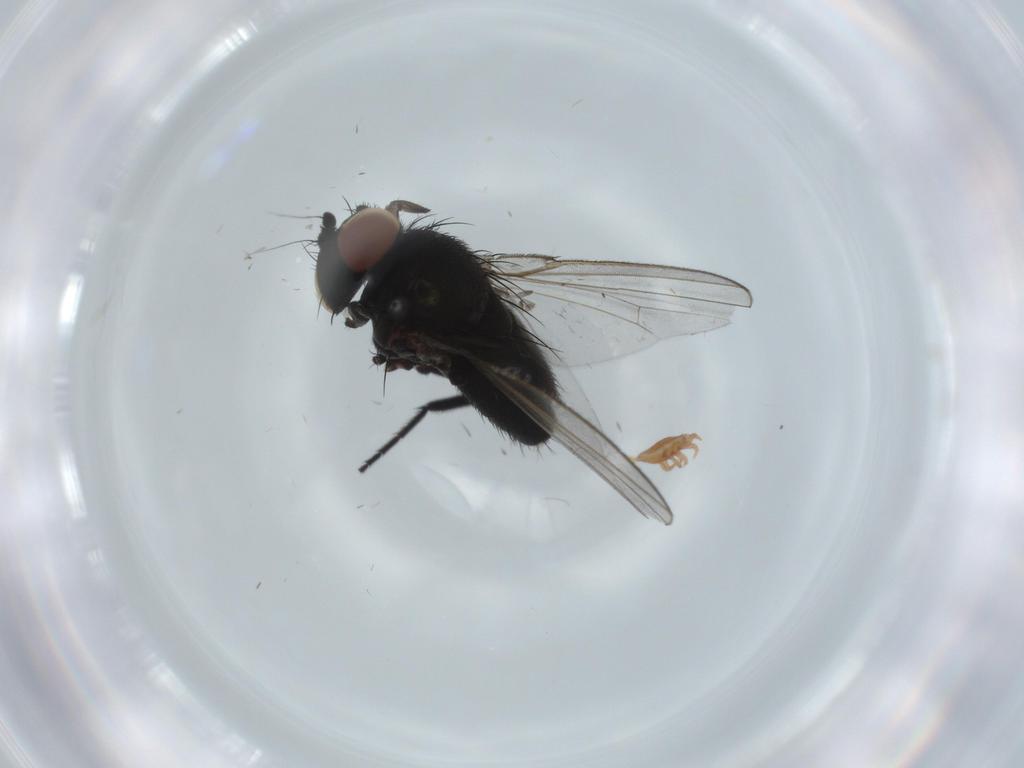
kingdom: Animalia
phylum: Arthropoda
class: Insecta
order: Diptera
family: Milichiidae
